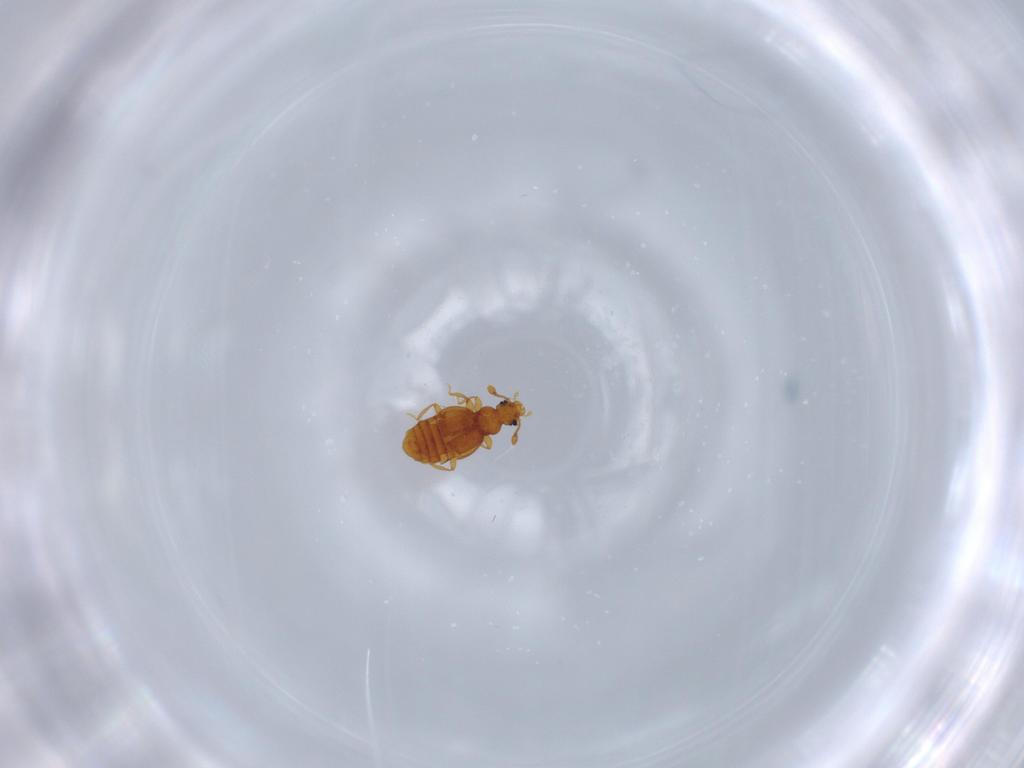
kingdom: Animalia
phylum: Arthropoda
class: Insecta
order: Coleoptera
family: Staphylinidae
